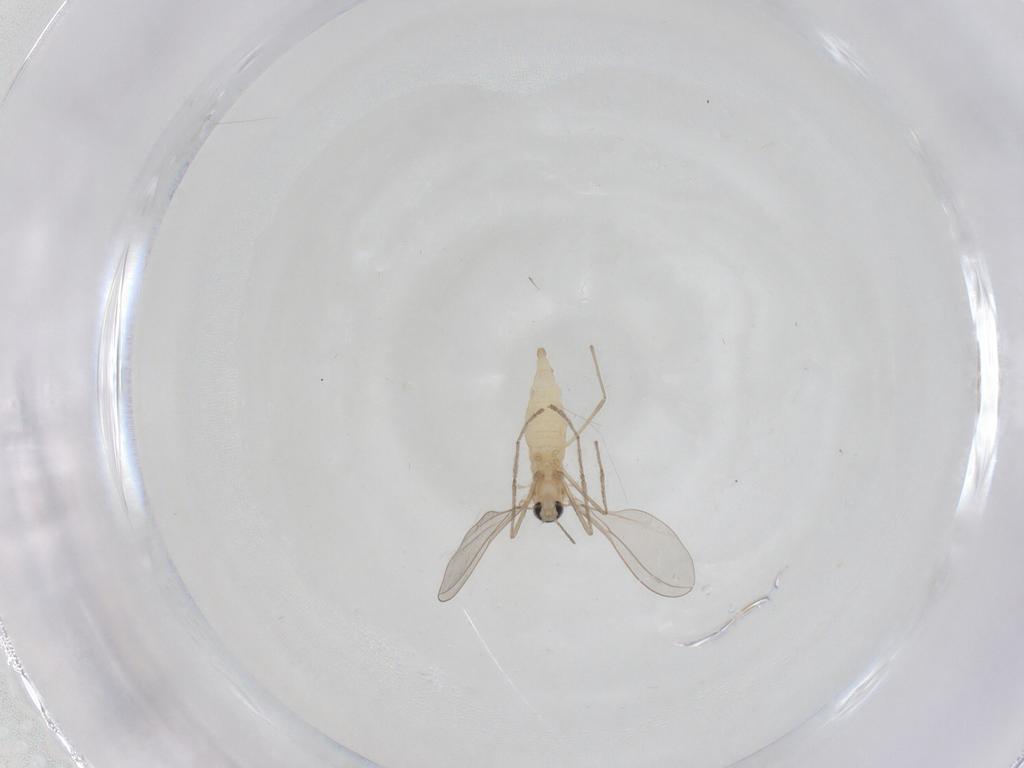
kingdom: Animalia
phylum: Arthropoda
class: Insecta
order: Diptera
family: Cecidomyiidae
